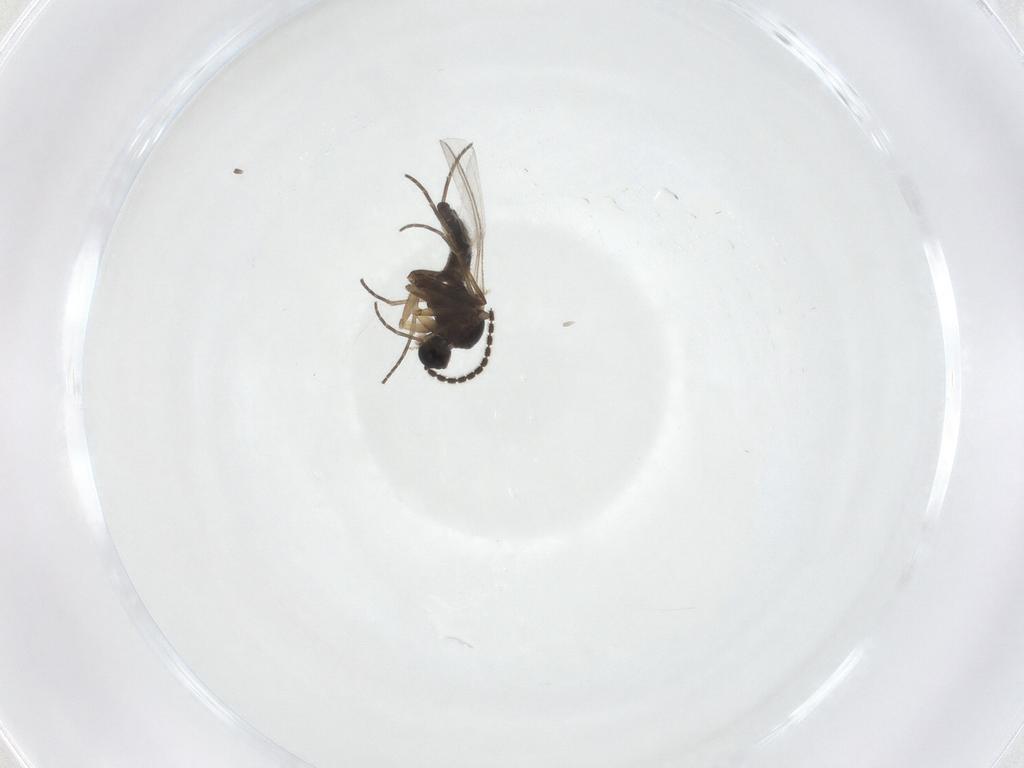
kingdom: Animalia
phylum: Arthropoda
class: Insecta
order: Diptera
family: Sciaridae
